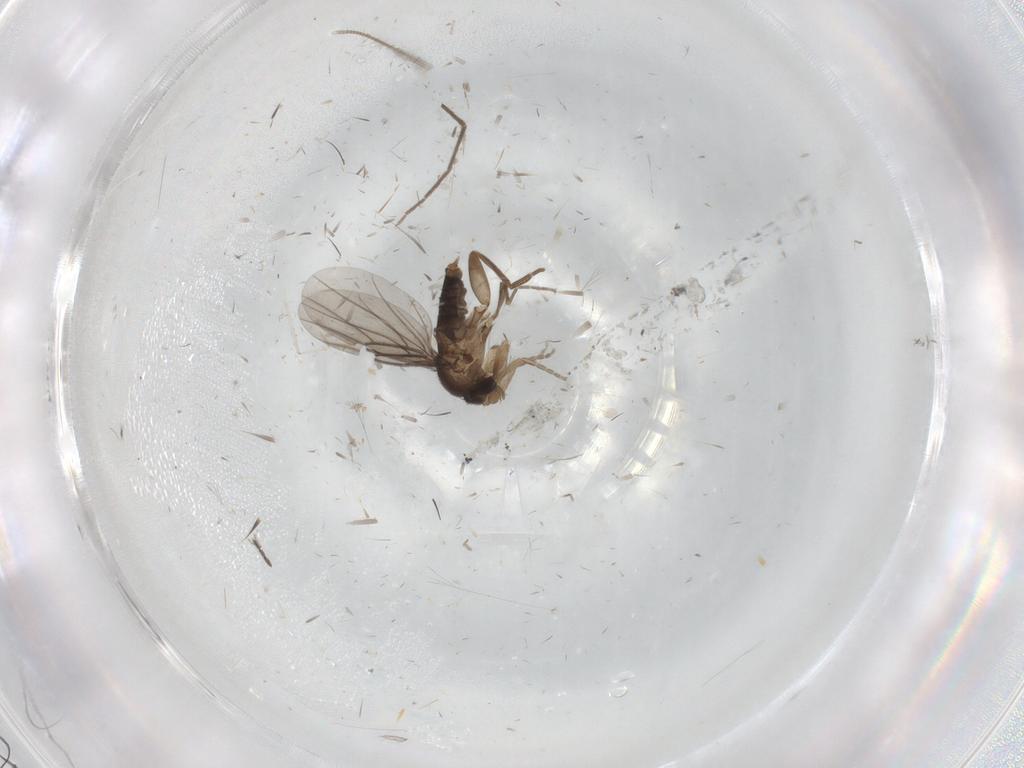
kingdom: Animalia
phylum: Arthropoda
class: Insecta
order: Diptera
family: Phoridae
